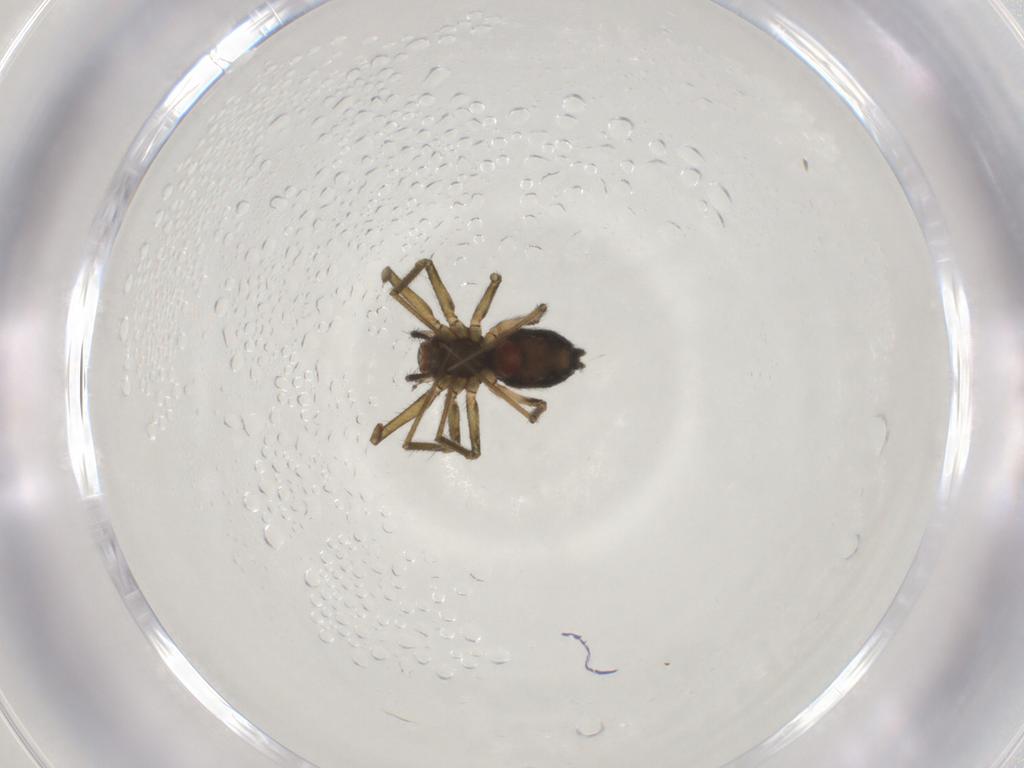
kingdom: Animalia
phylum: Arthropoda
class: Arachnida
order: Araneae
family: Linyphiidae
